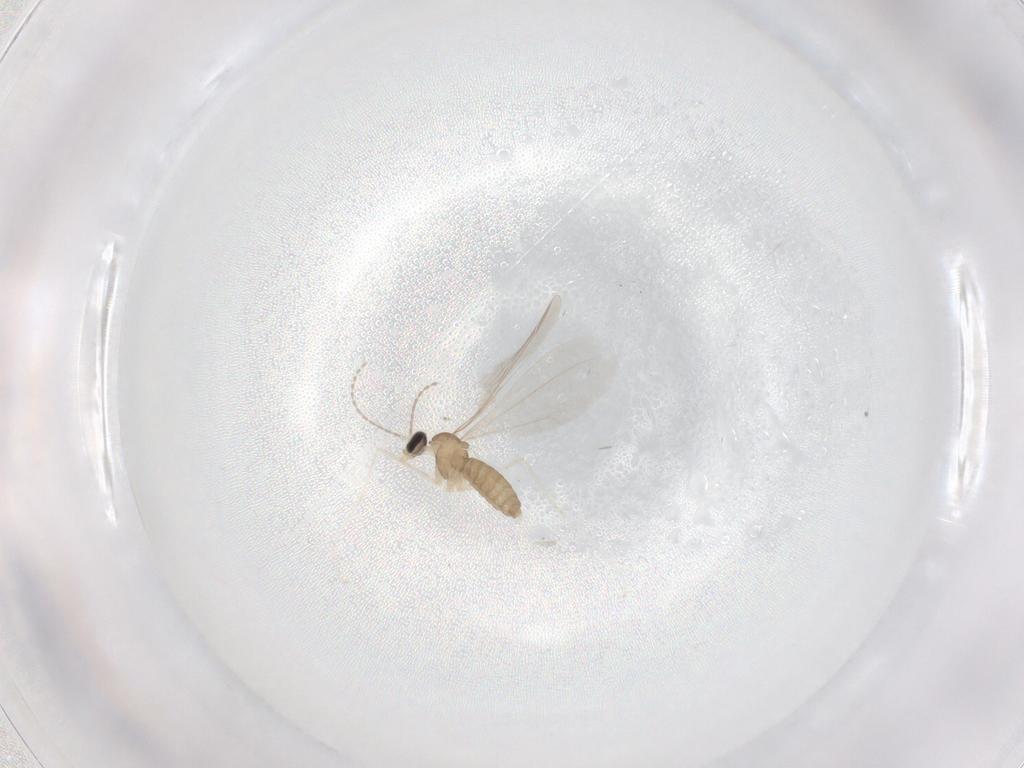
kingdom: Animalia
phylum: Arthropoda
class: Insecta
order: Diptera
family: Cecidomyiidae
